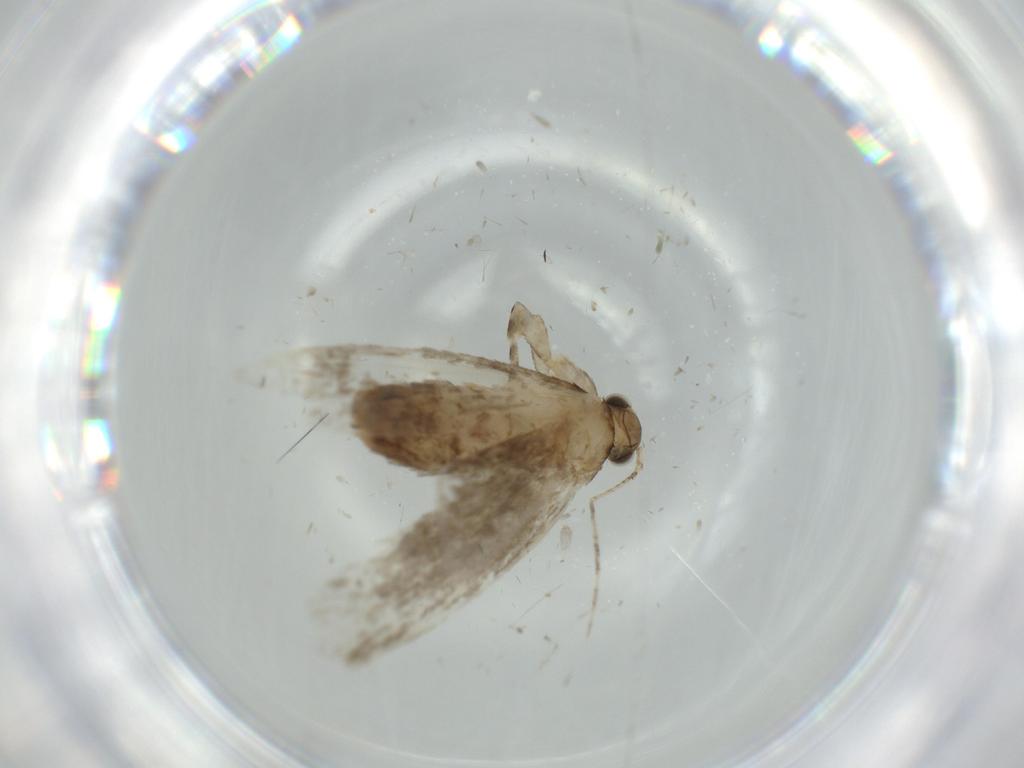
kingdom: Animalia
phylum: Arthropoda
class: Insecta
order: Lepidoptera
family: Tineidae
